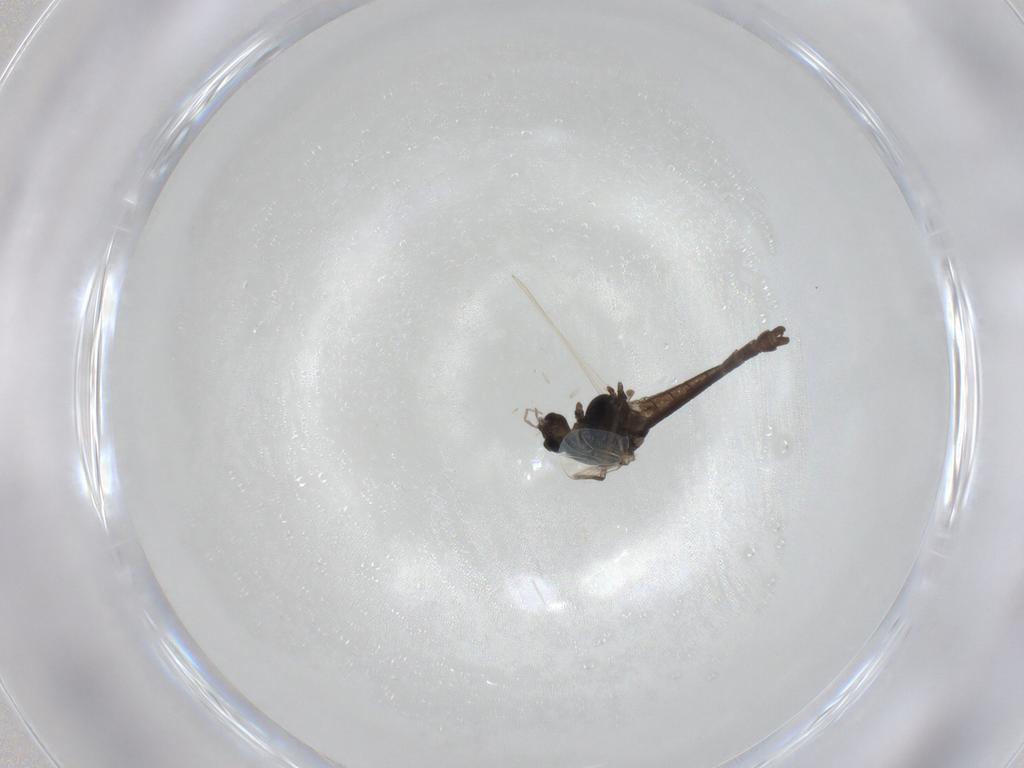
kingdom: Animalia
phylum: Arthropoda
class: Insecta
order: Diptera
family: Chironomidae
